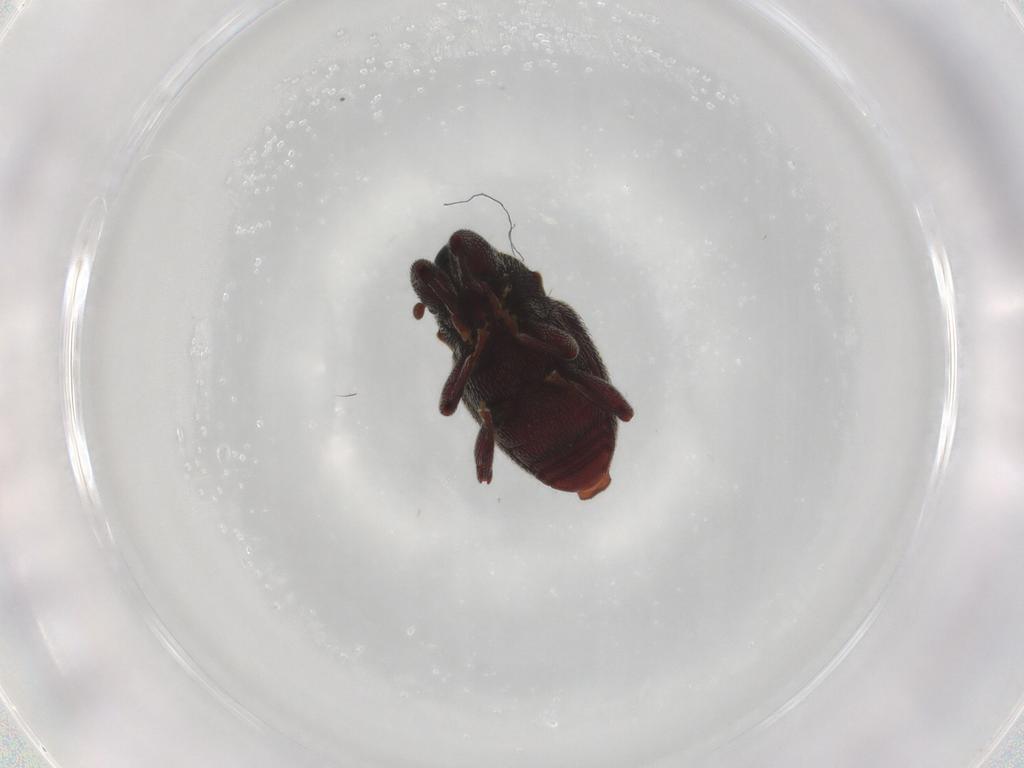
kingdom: Animalia
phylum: Arthropoda
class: Insecta
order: Coleoptera
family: Curculionidae
